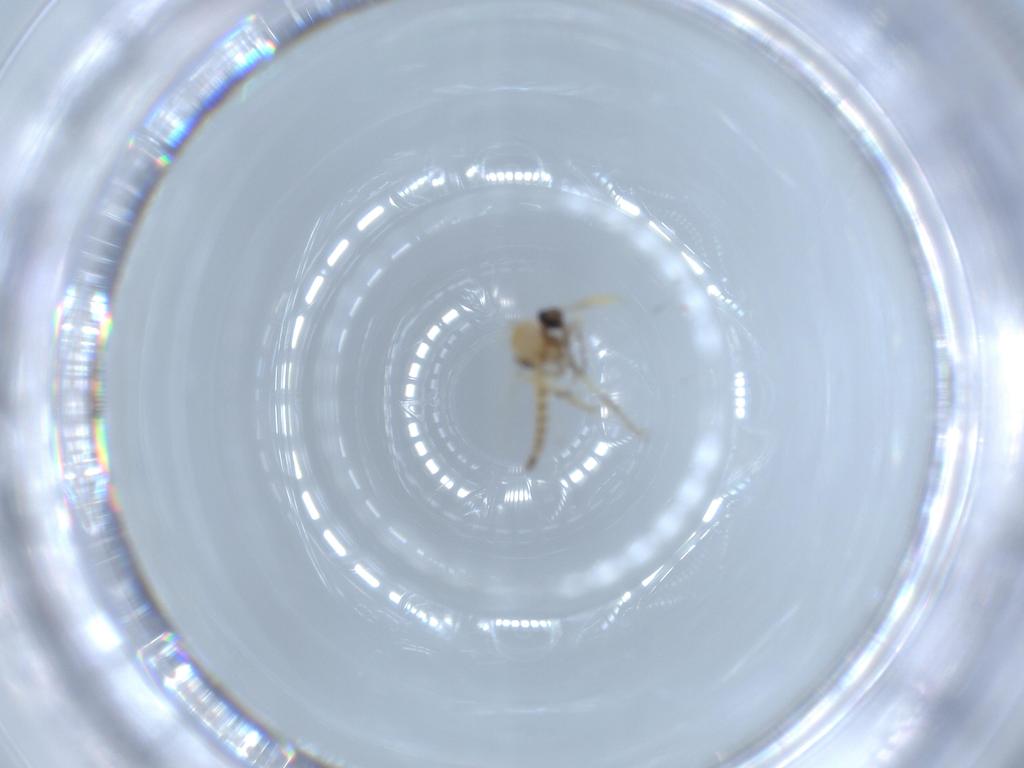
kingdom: Animalia
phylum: Arthropoda
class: Insecta
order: Diptera
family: Ceratopogonidae
